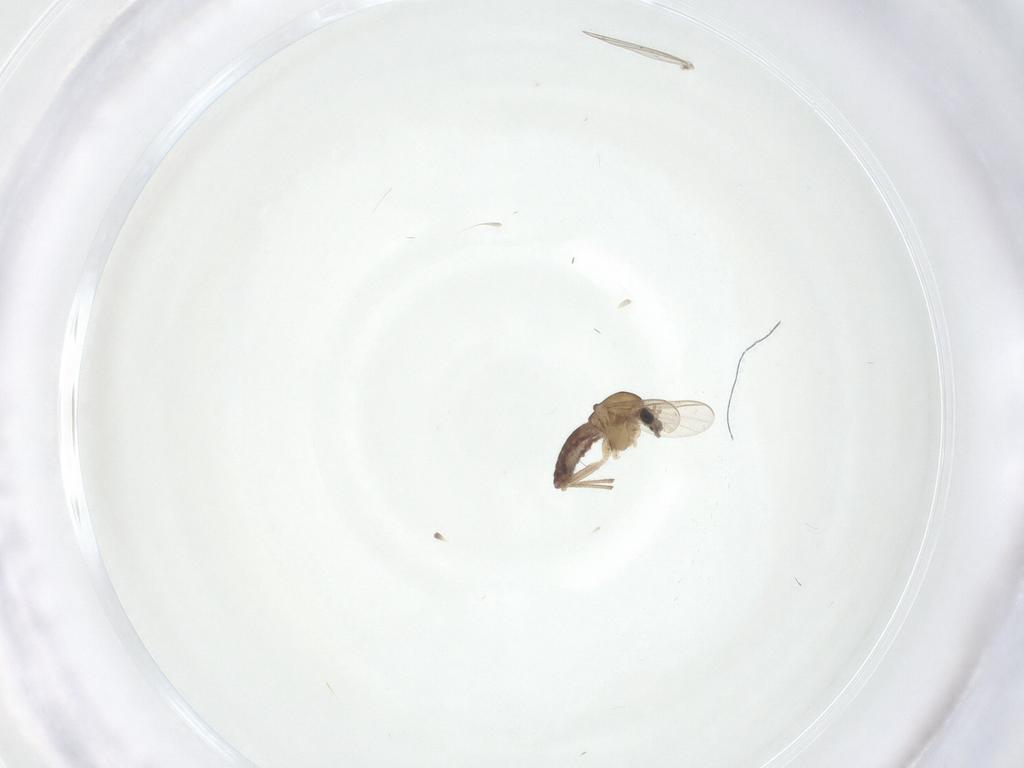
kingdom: Animalia
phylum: Arthropoda
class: Insecta
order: Diptera
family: Chironomidae
